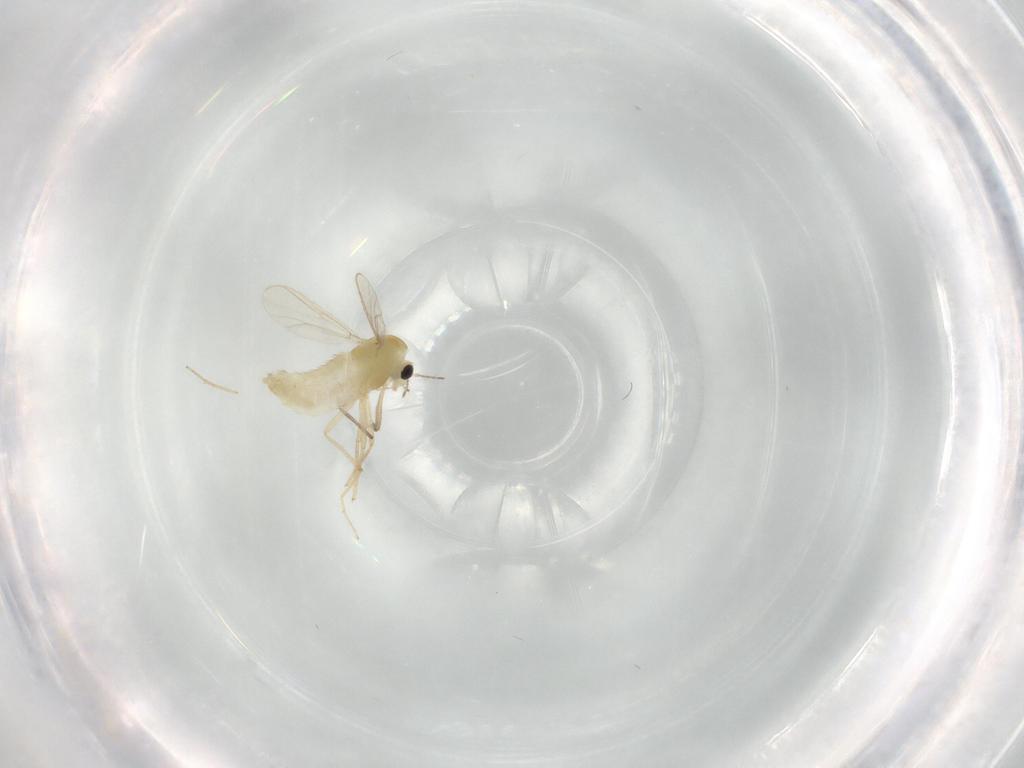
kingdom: Animalia
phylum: Arthropoda
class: Insecta
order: Diptera
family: Chironomidae
